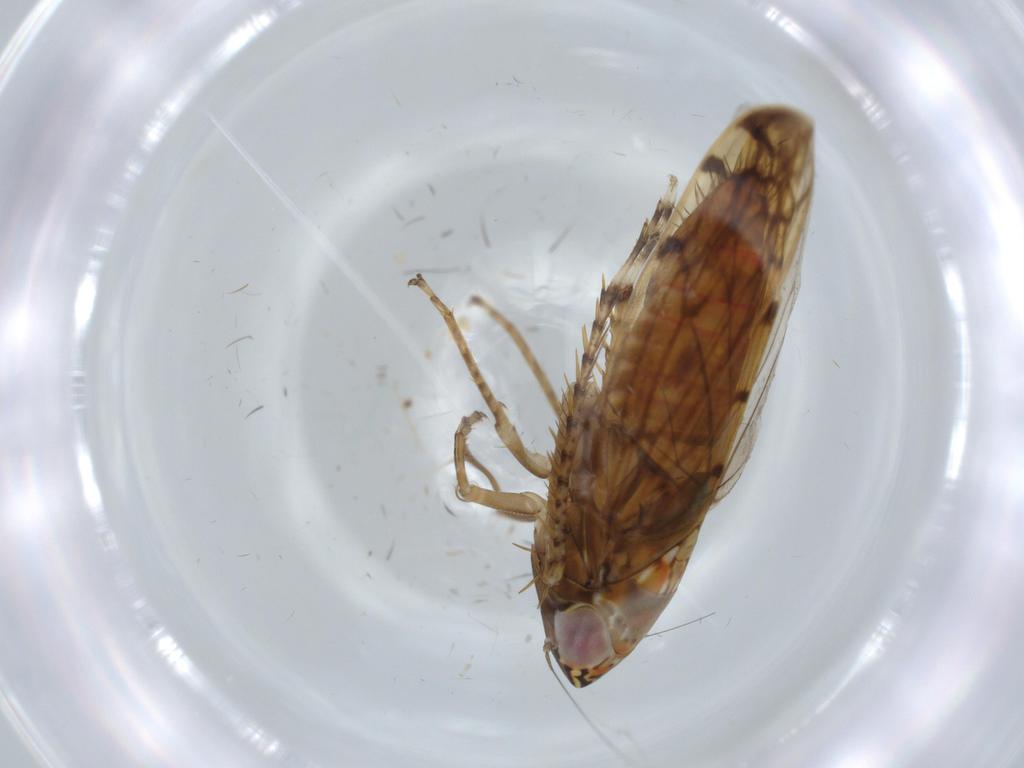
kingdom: Animalia
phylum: Arthropoda
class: Insecta
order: Hemiptera
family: Cicadellidae
